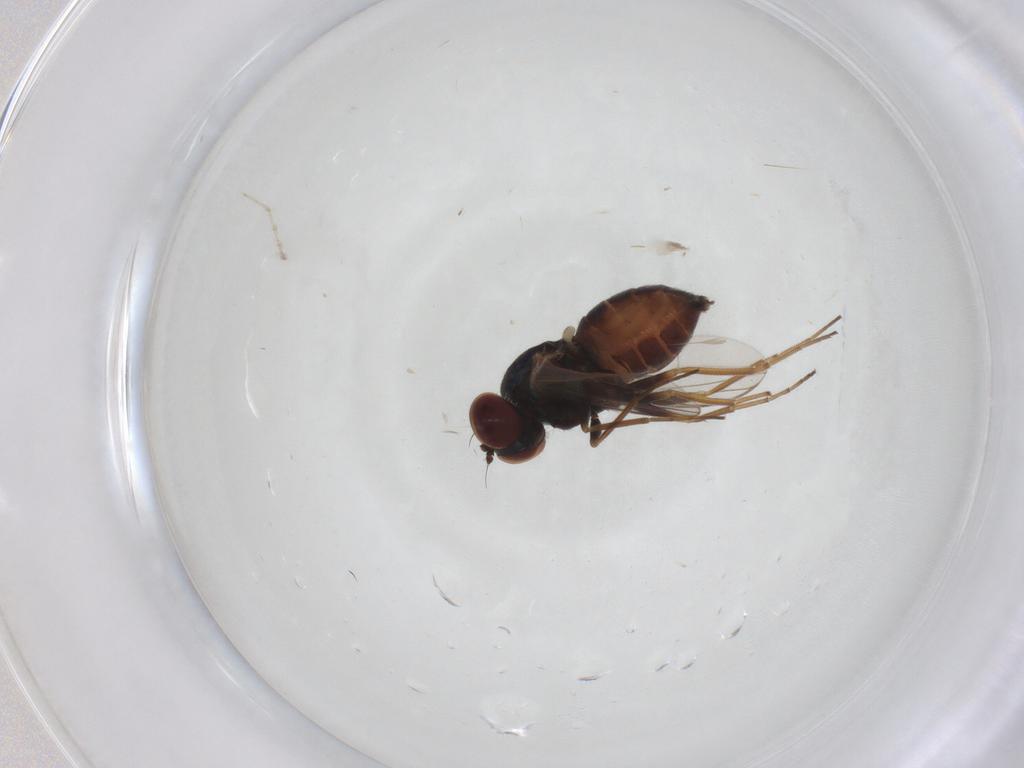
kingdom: Animalia
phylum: Arthropoda
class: Insecta
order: Diptera
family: Dolichopodidae
